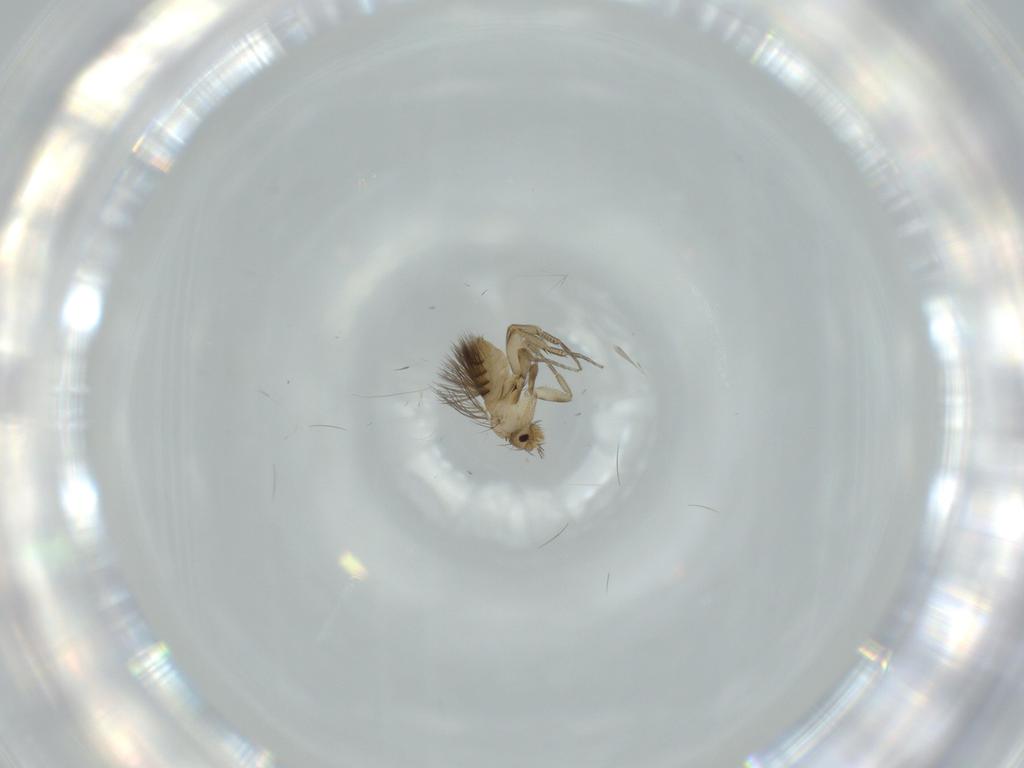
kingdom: Animalia
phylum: Arthropoda
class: Insecta
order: Diptera
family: Phoridae
